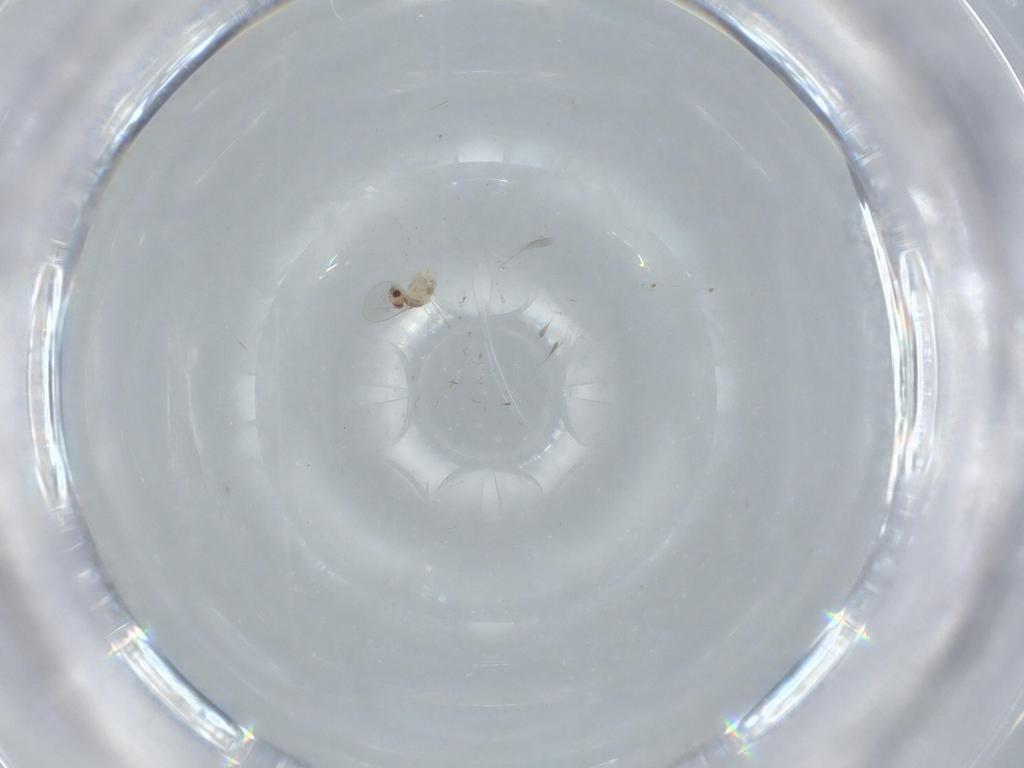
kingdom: Animalia
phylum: Arthropoda
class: Insecta
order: Diptera
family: Cecidomyiidae
